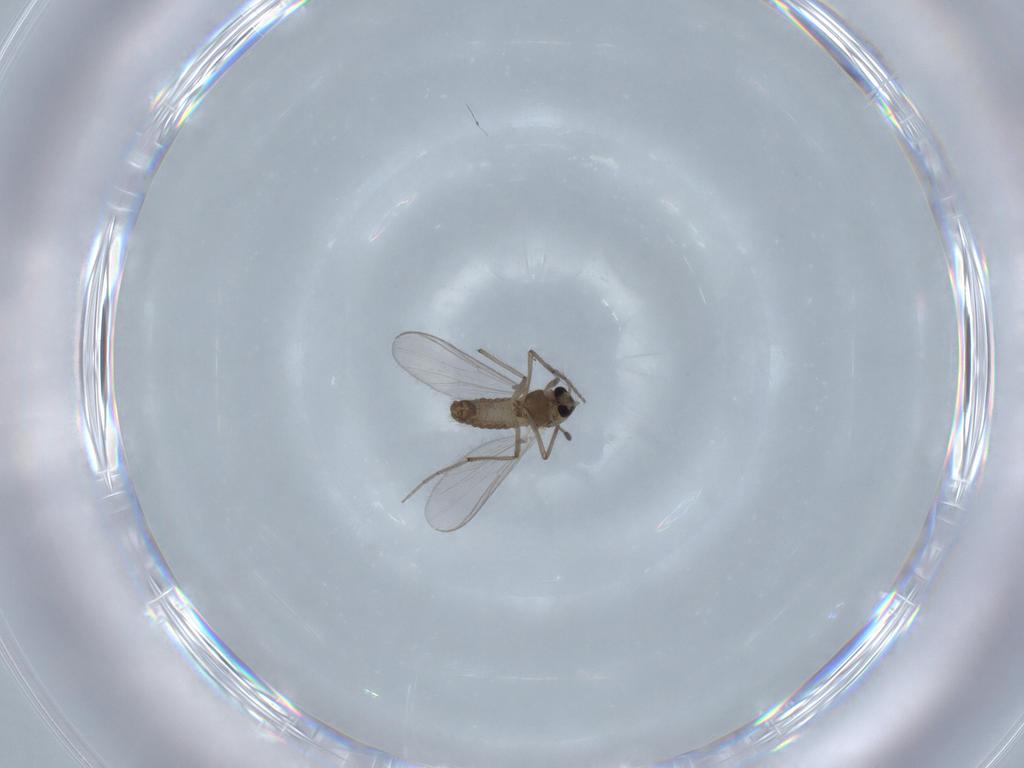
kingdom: Animalia
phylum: Arthropoda
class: Insecta
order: Diptera
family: Chironomidae
